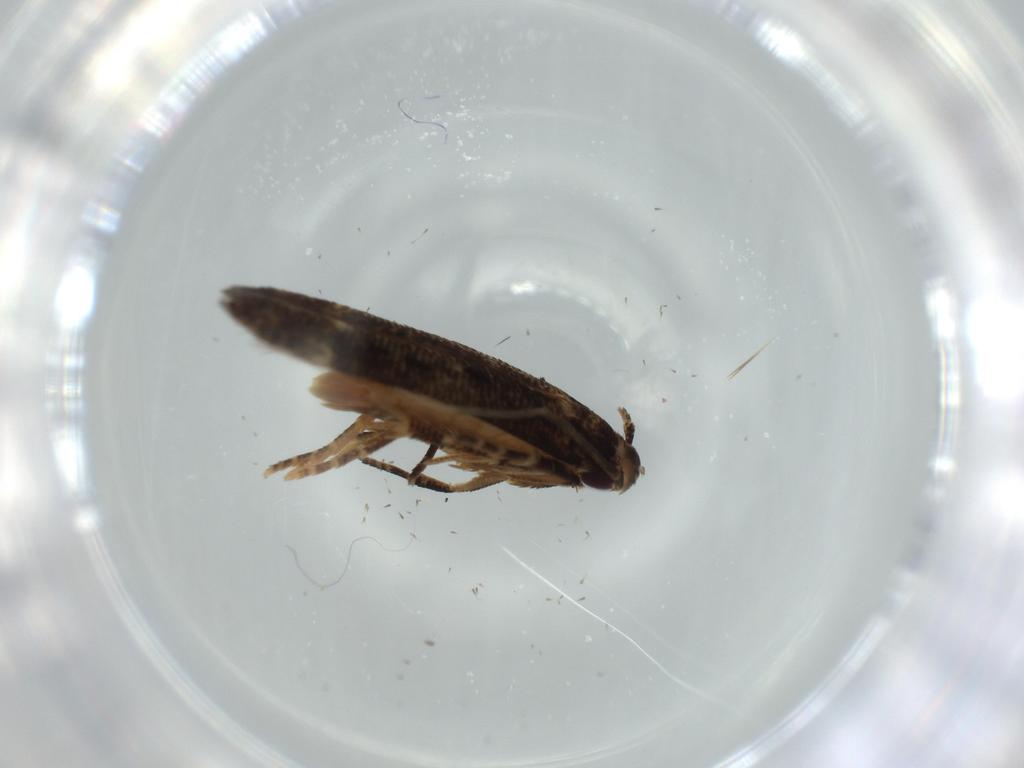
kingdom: Animalia
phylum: Arthropoda
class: Insecta
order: Lepidoptera
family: Cosmopterigidae
